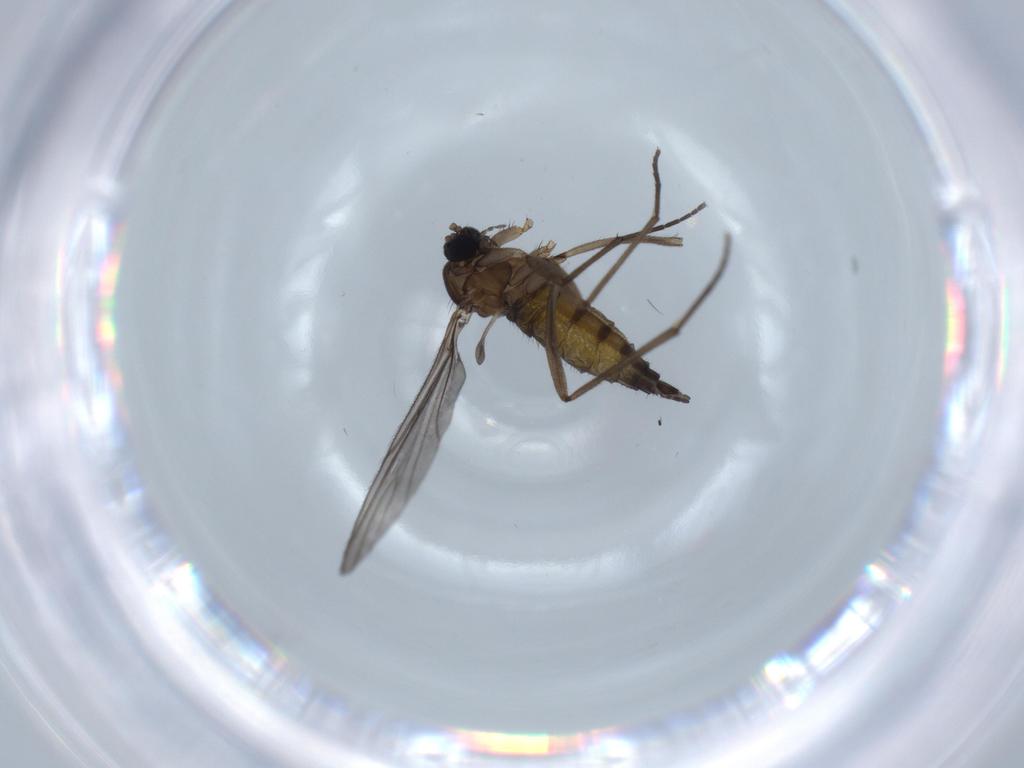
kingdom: Animalia
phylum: Arthropoda
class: Insecta
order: Diptera
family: Sciaridae
